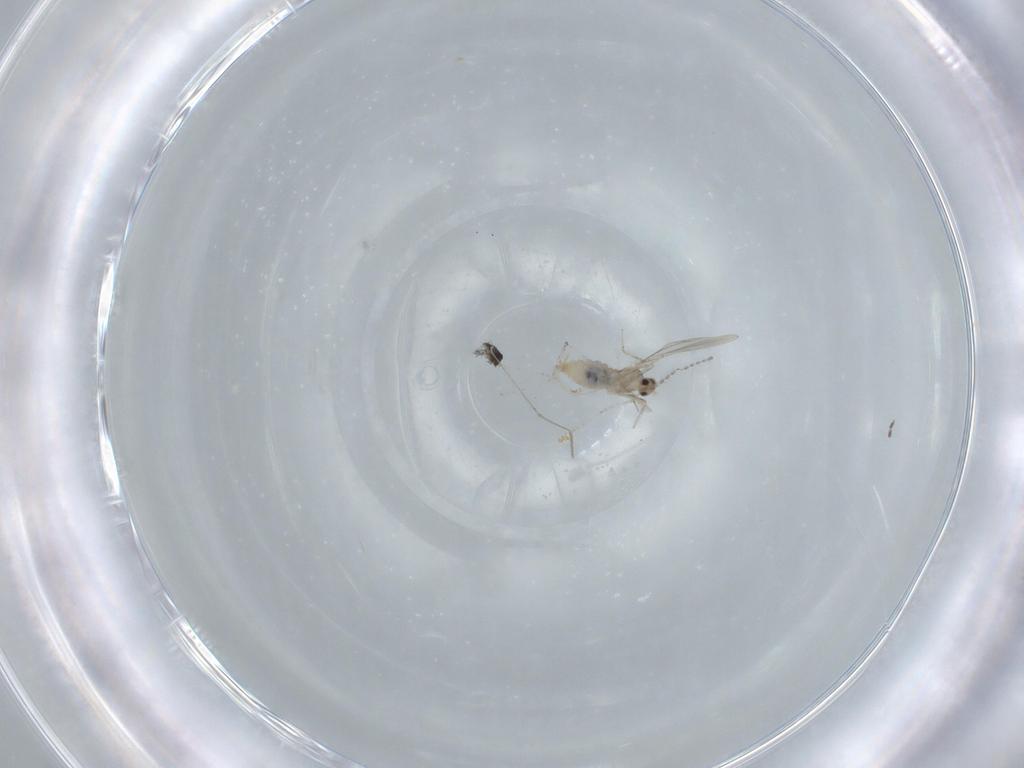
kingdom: Animalia
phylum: Arthropoda
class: Insecta
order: Diptera
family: Cecidomyiidae
